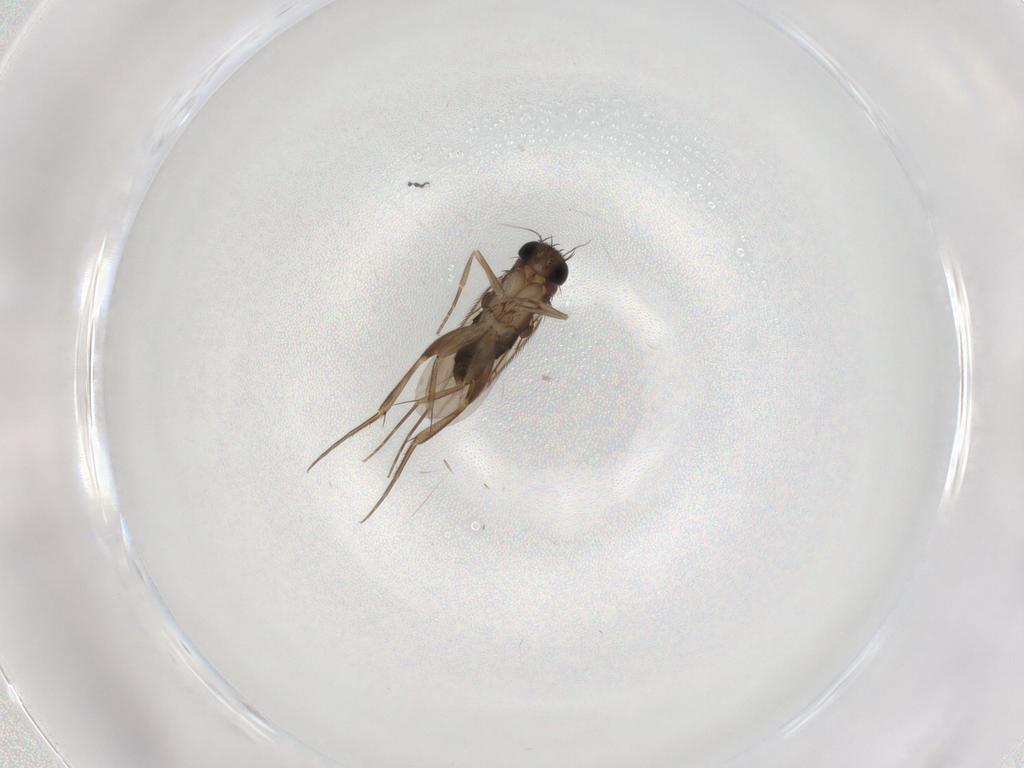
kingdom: Animalia
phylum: Arthropoda
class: Insecta
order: Diptera
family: Phoridae
